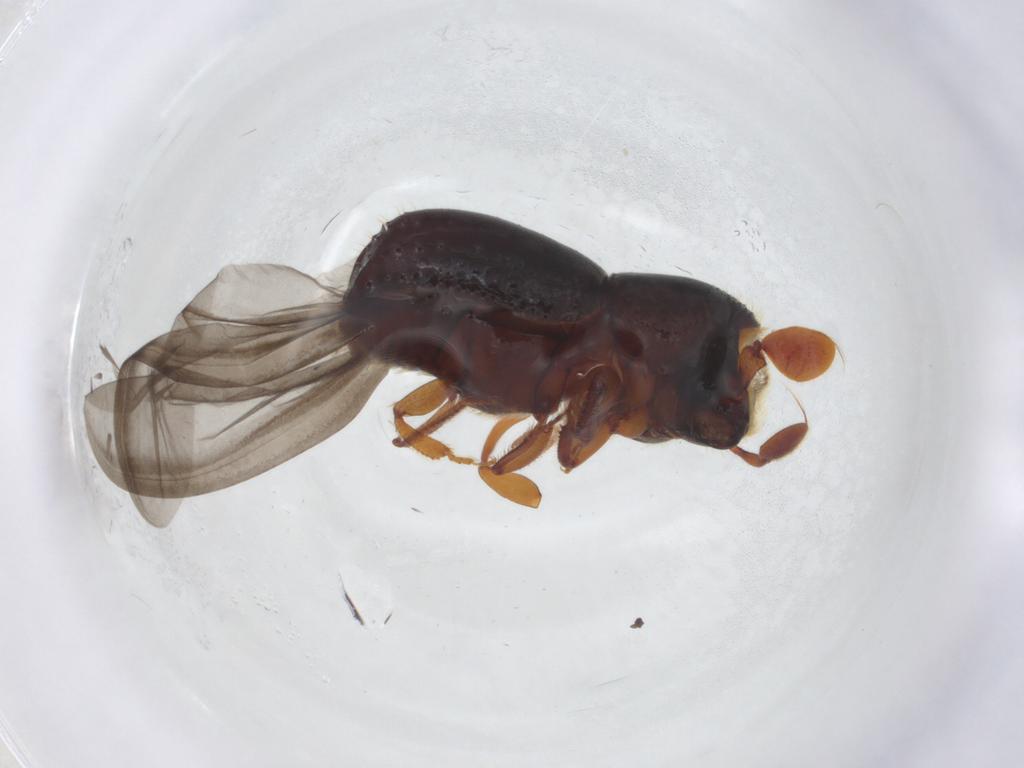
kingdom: Animalia
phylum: Arthropoda
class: Insecta
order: Coleoptera
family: Curculionidae
